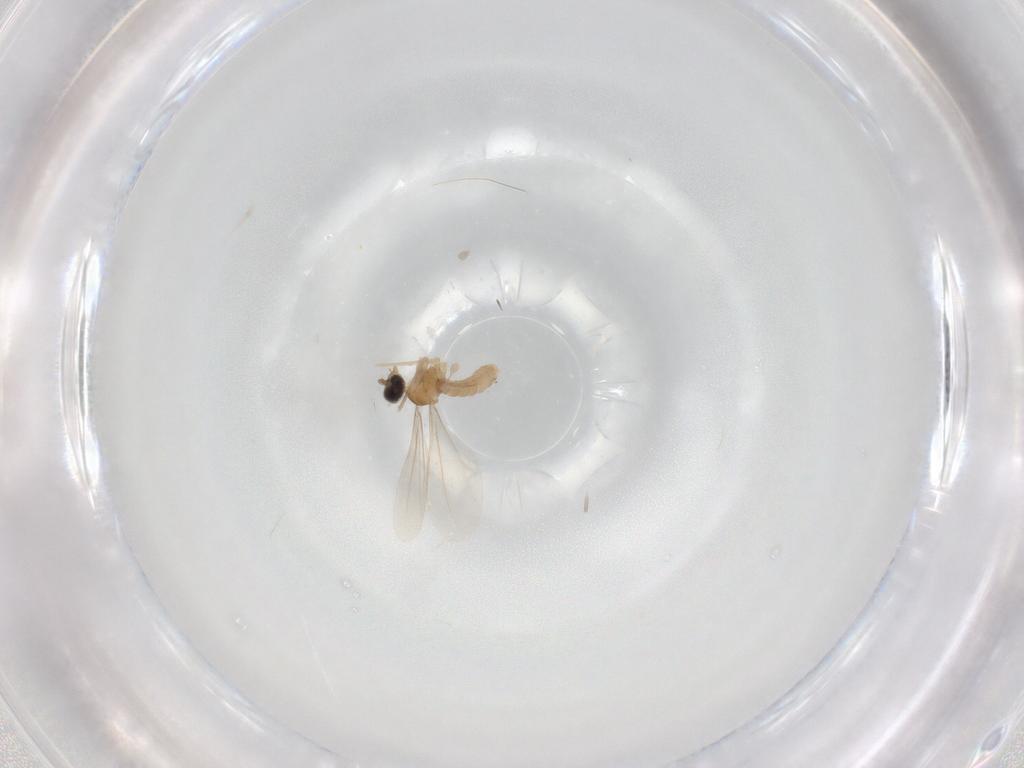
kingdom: Animalia
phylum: Arthropoda
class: Insecta
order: Diptera
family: Cecidomyiidae
